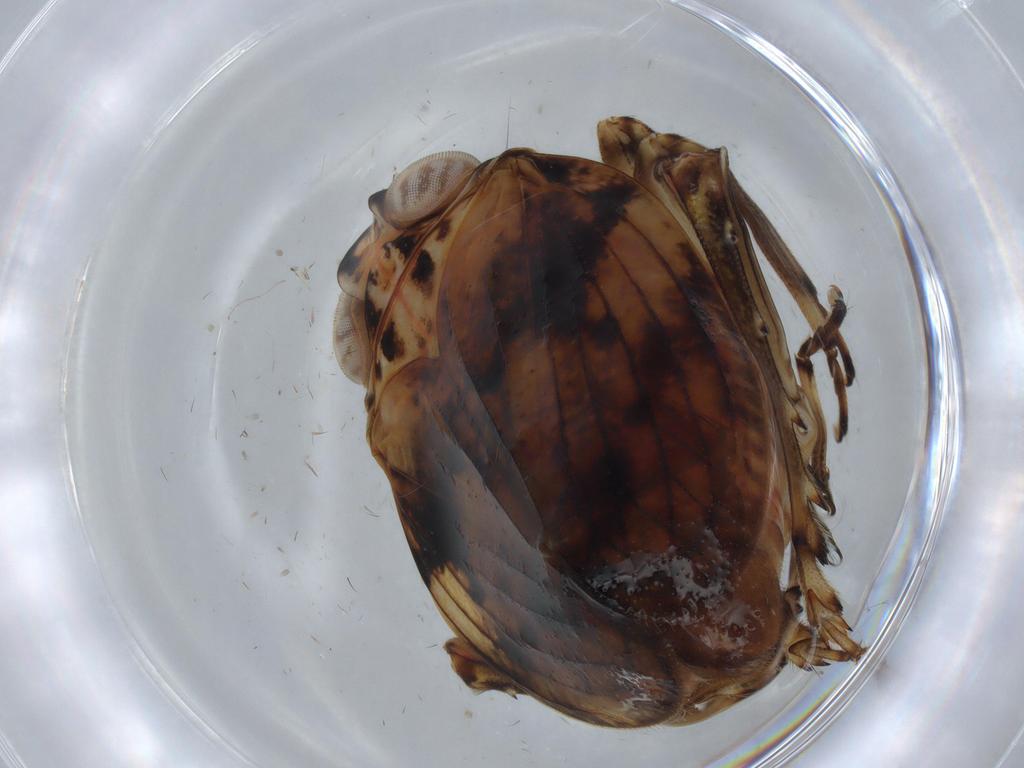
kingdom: Animalia
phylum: Arthropoda
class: Insecta
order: Hemiptera
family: Issidae
